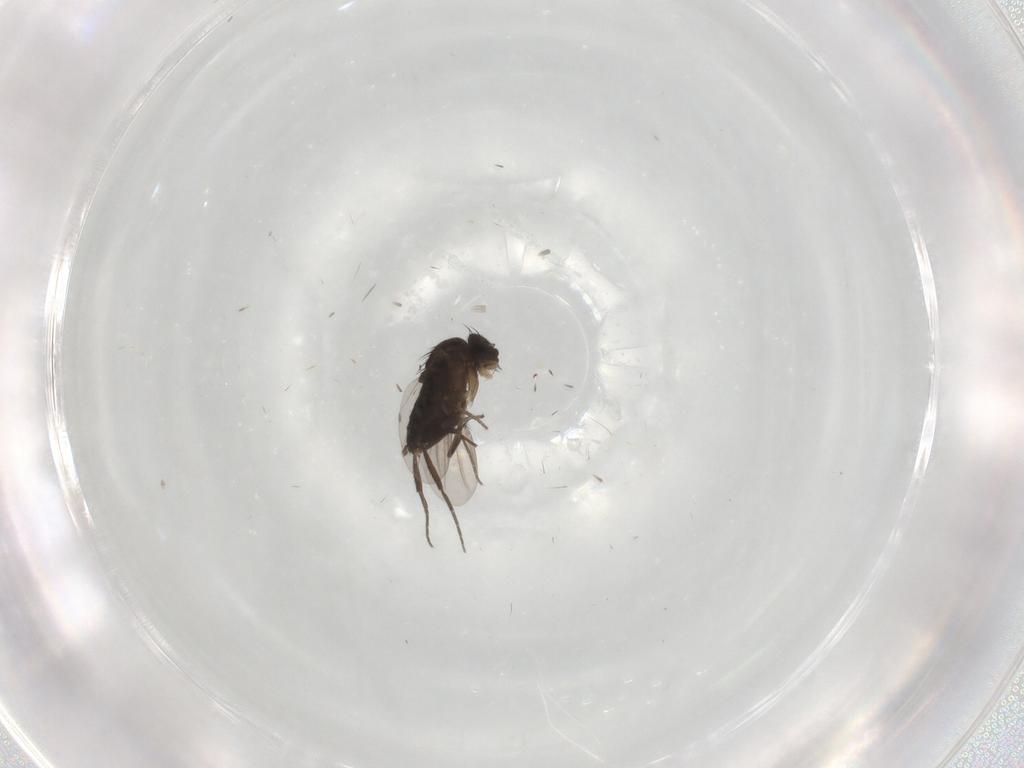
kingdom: Animalia
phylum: Arthropoda
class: Insecta
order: Diptera
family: Phoridae
